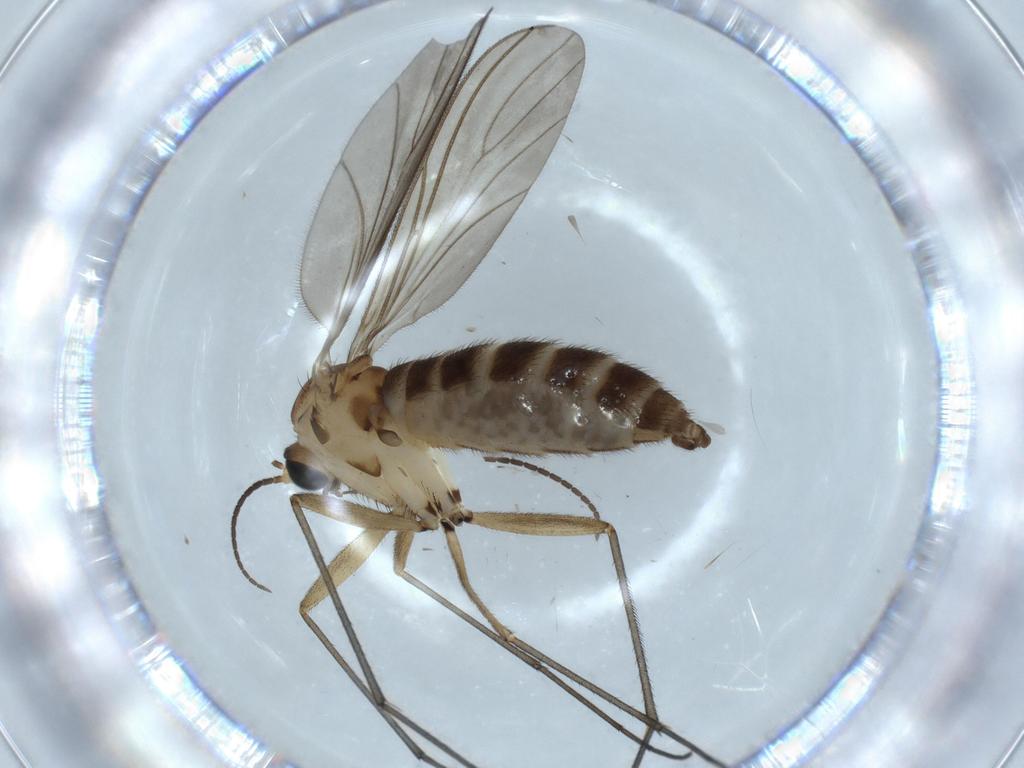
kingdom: Animalia
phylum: Arthropoda
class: Insecta
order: Diptera
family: Sciaridae
